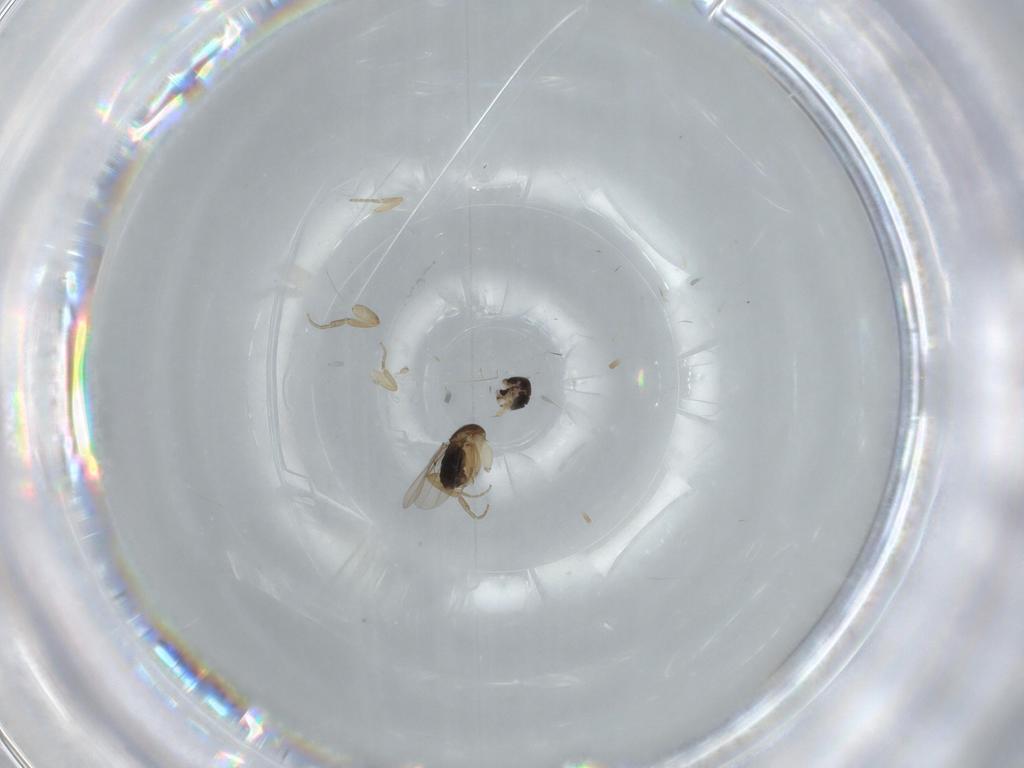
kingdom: Animalia
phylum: Arthropoda
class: Insecta
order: Diptera
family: Phoridae
